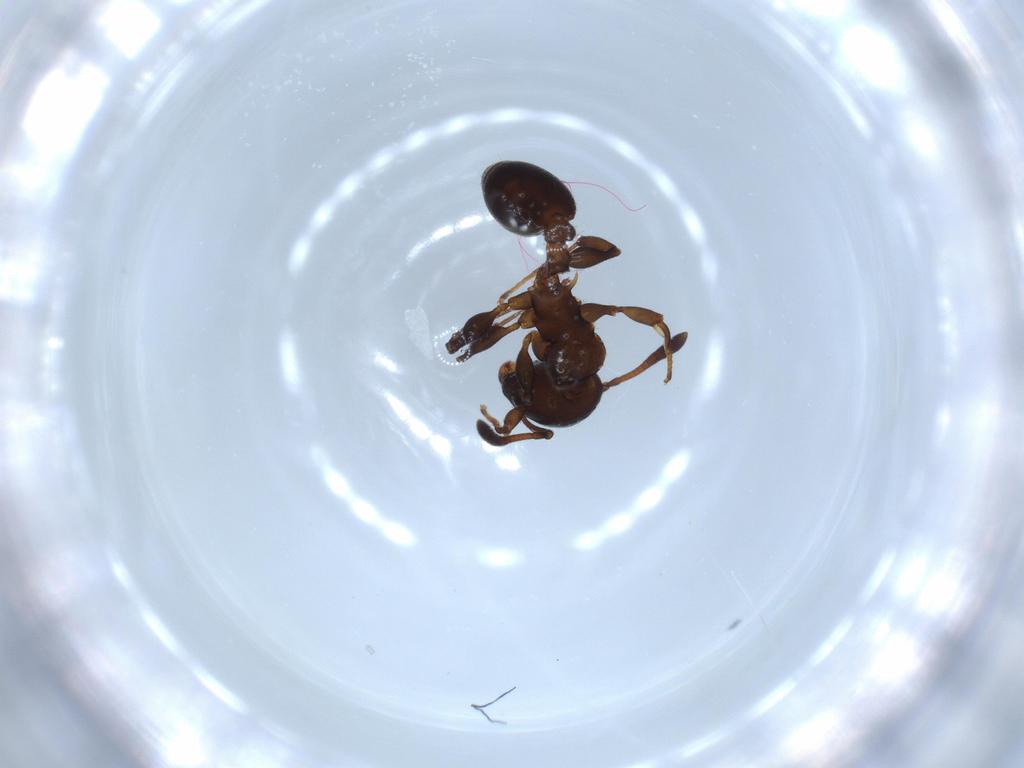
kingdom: Animalia
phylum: Arthropoda
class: Insecta
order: Hymenoptera
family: Formicidae
